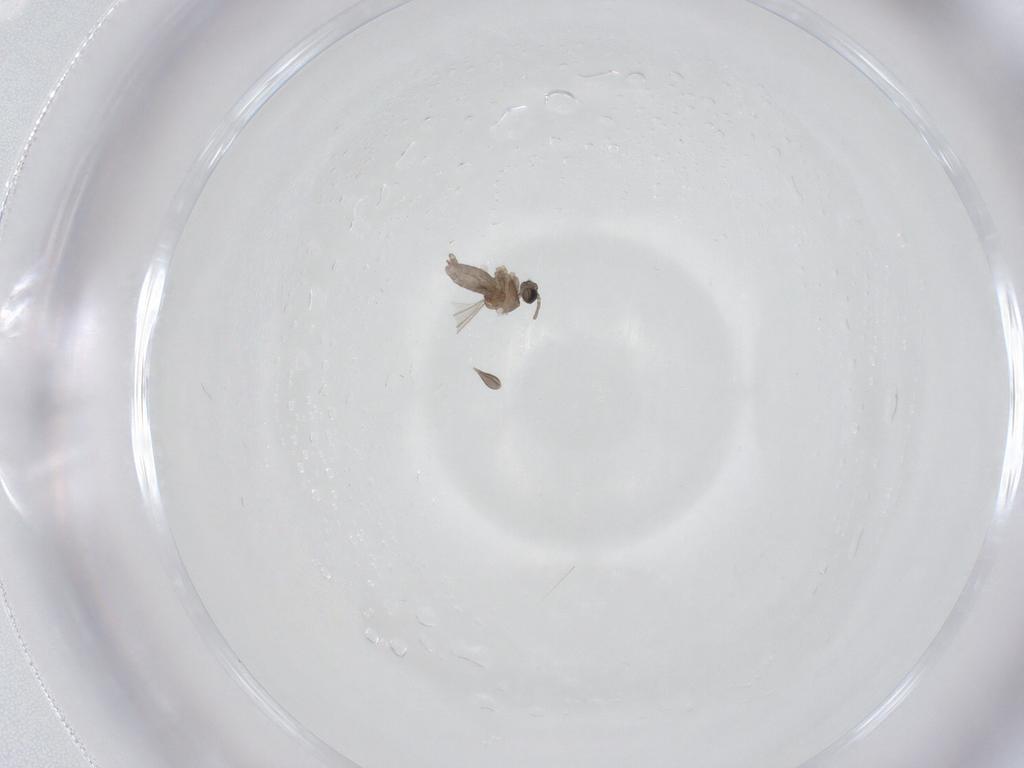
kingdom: Animalia
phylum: Arthropoda
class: Insecta
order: Diptera
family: Cecidomyiidae
